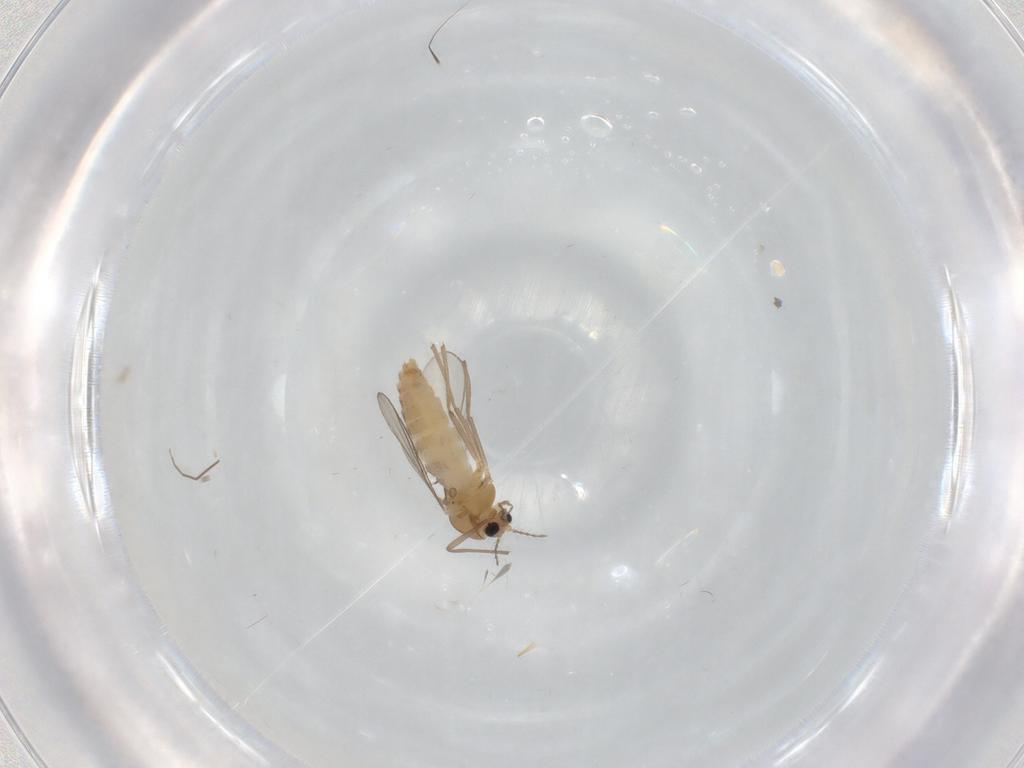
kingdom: Animalia
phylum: Arthropoda
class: Insecta
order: Diptera
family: Chironomidae
